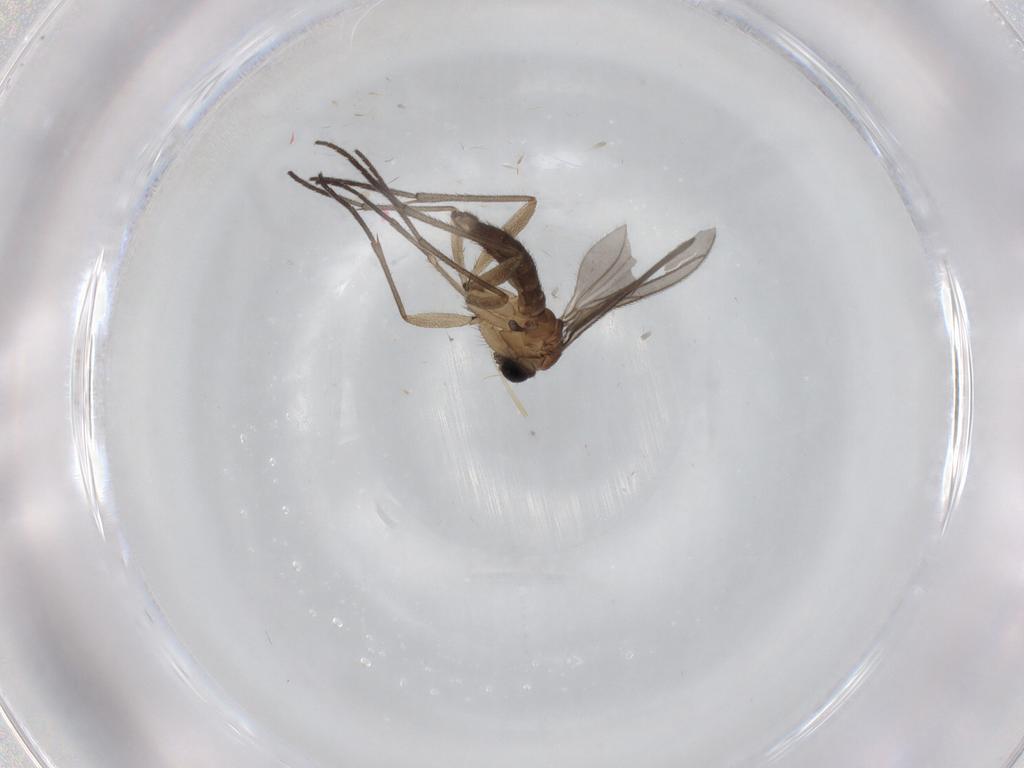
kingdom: Animalia
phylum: Arthropoda
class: Insecta
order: Diptera
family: Sciaridae
